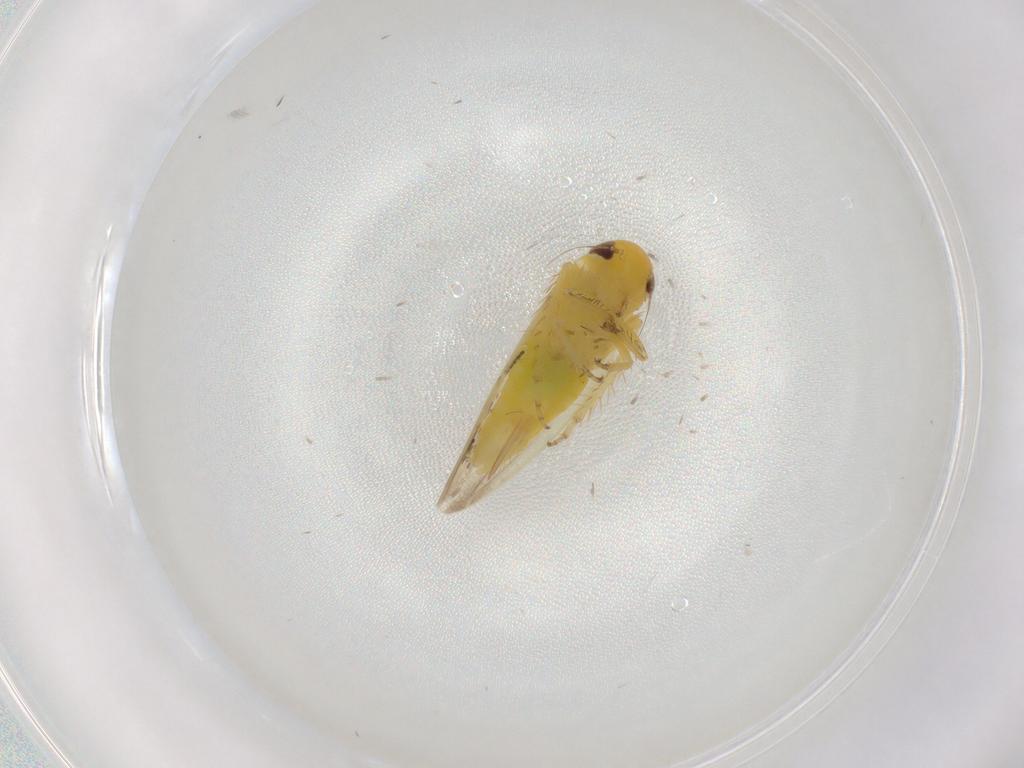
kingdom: Animalia
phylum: Arthropoda
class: Insecta
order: Hemiptera
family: Cicadellidae
